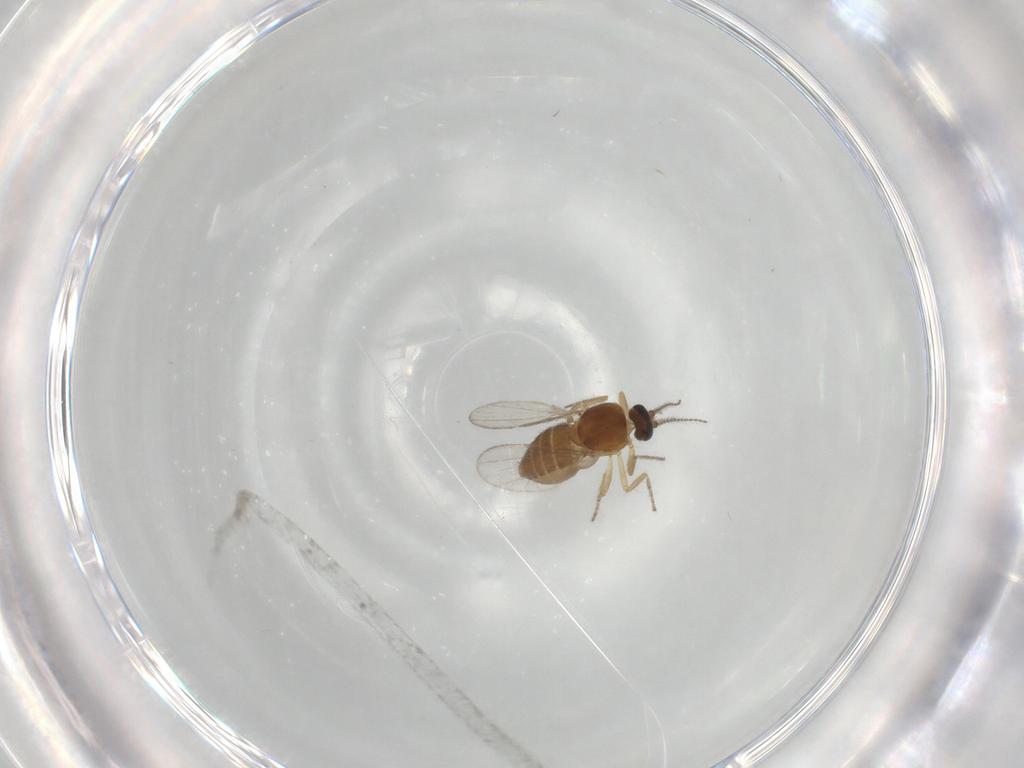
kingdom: Animalia
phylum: Arthropoda
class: Insecta
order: Diptera
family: Ceratopogonidae
